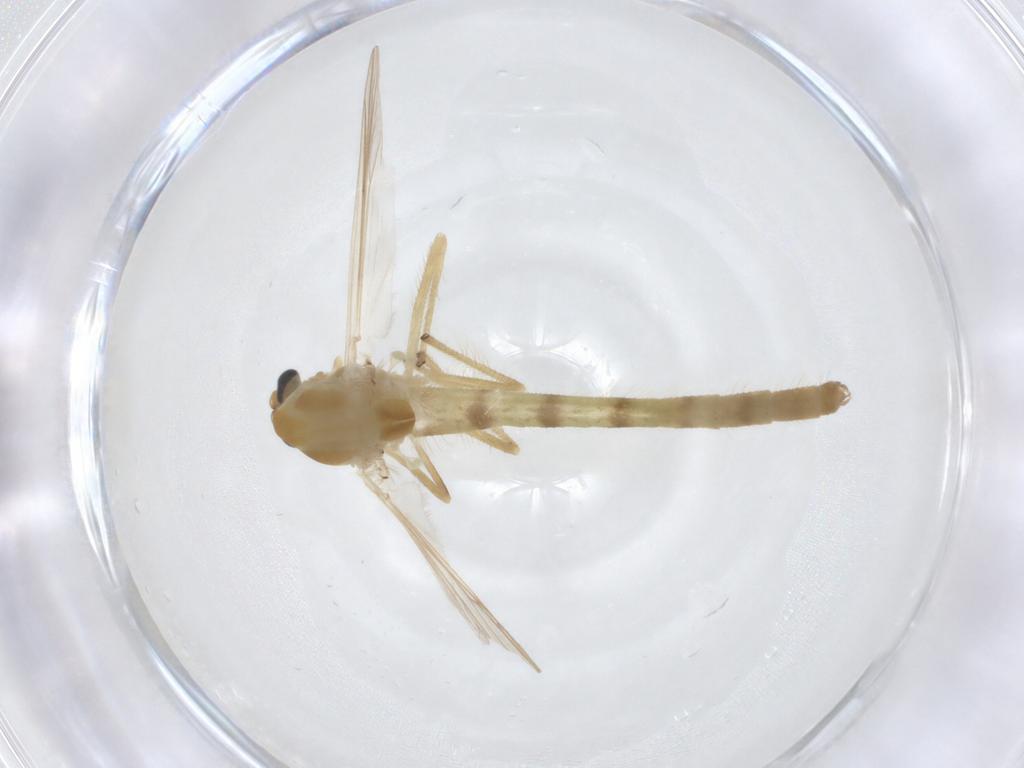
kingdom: Animalia
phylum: Arthropoda
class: Insecta
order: Diptera
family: Chironomidae
